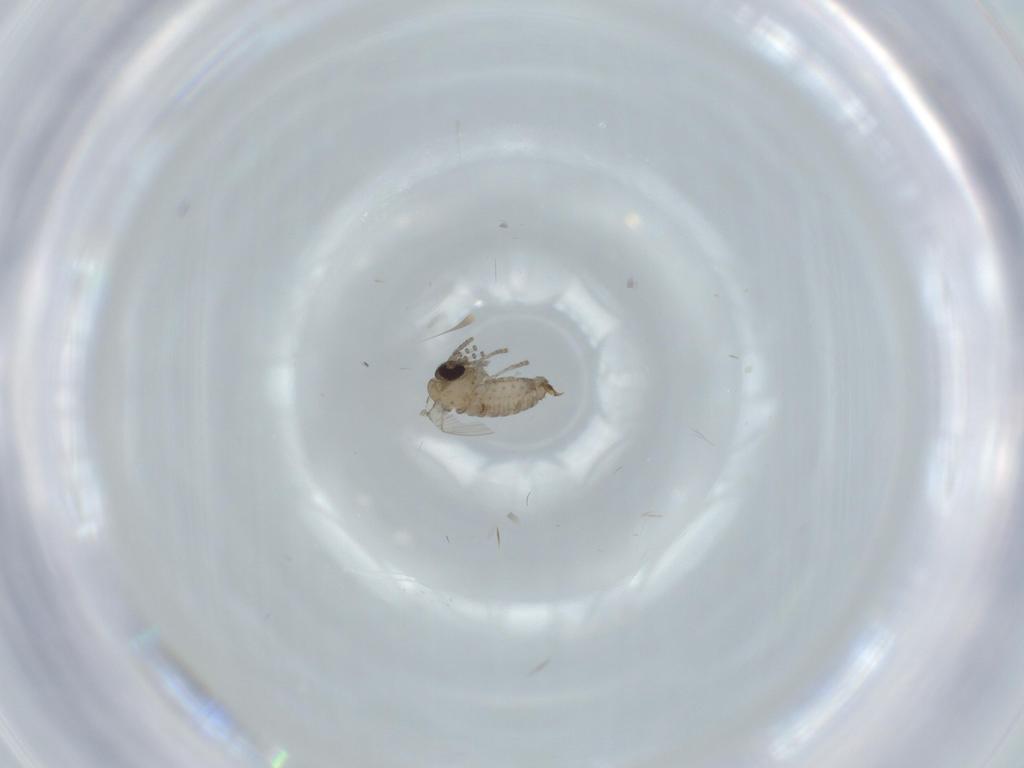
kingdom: Animalia
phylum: Arthropoda
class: Insecta
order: Diptera
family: Psychodidae
